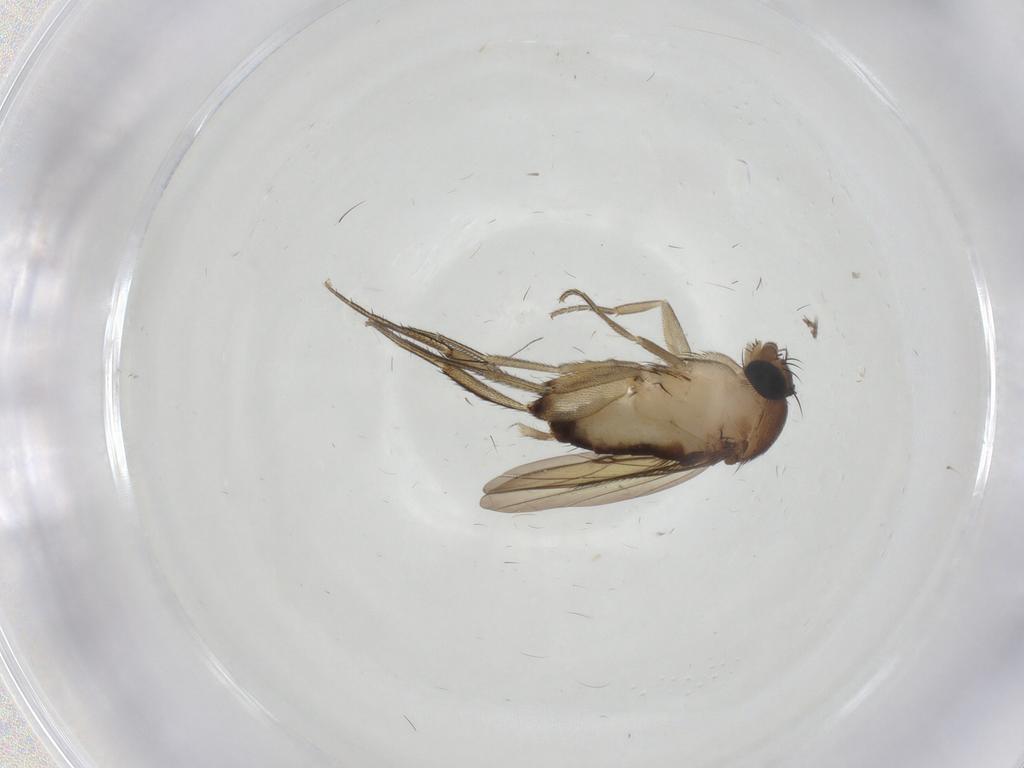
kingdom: Animalia
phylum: Arthropoda
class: Insecta
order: Diptera
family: Phoridae
